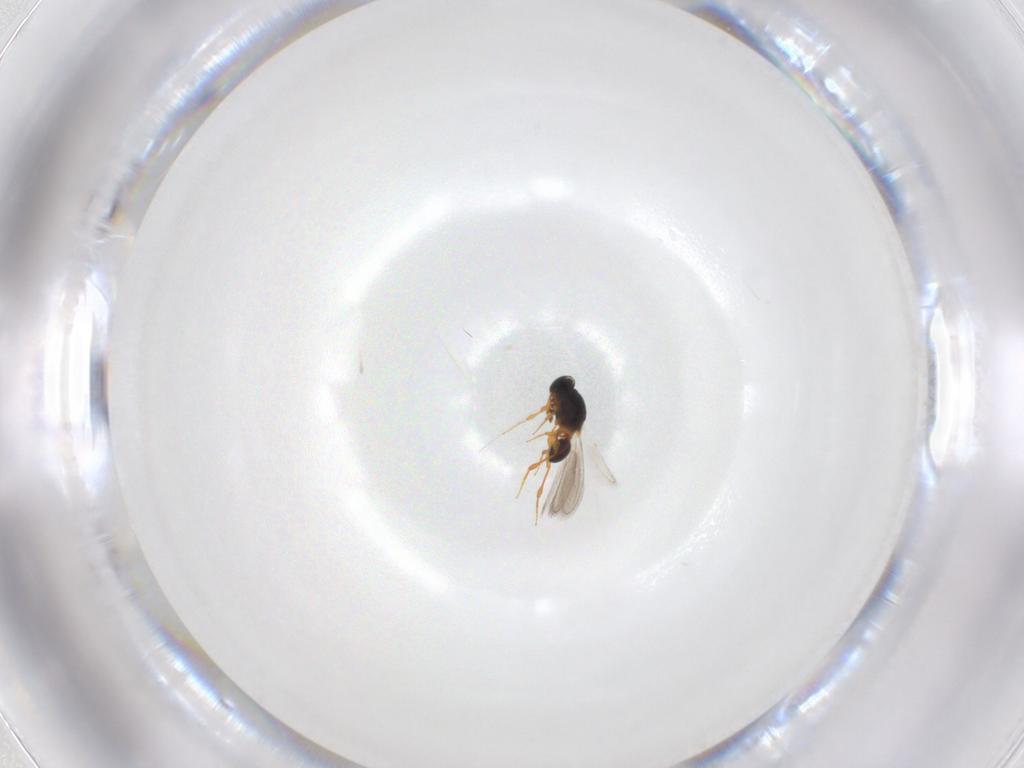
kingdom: Animalia
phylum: Arthropoda
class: Insecta
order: Hymenoptera
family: Platygastridae
